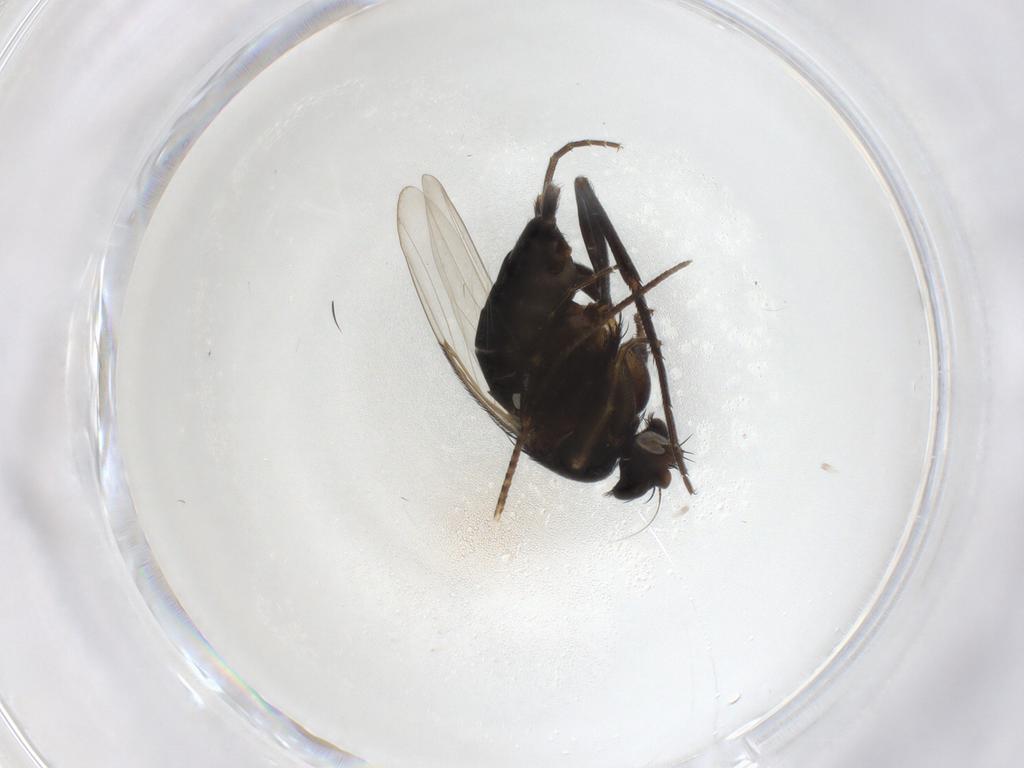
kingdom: Animalia
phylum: Arthropoda
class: Insecta
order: Diptera
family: Phoridae
